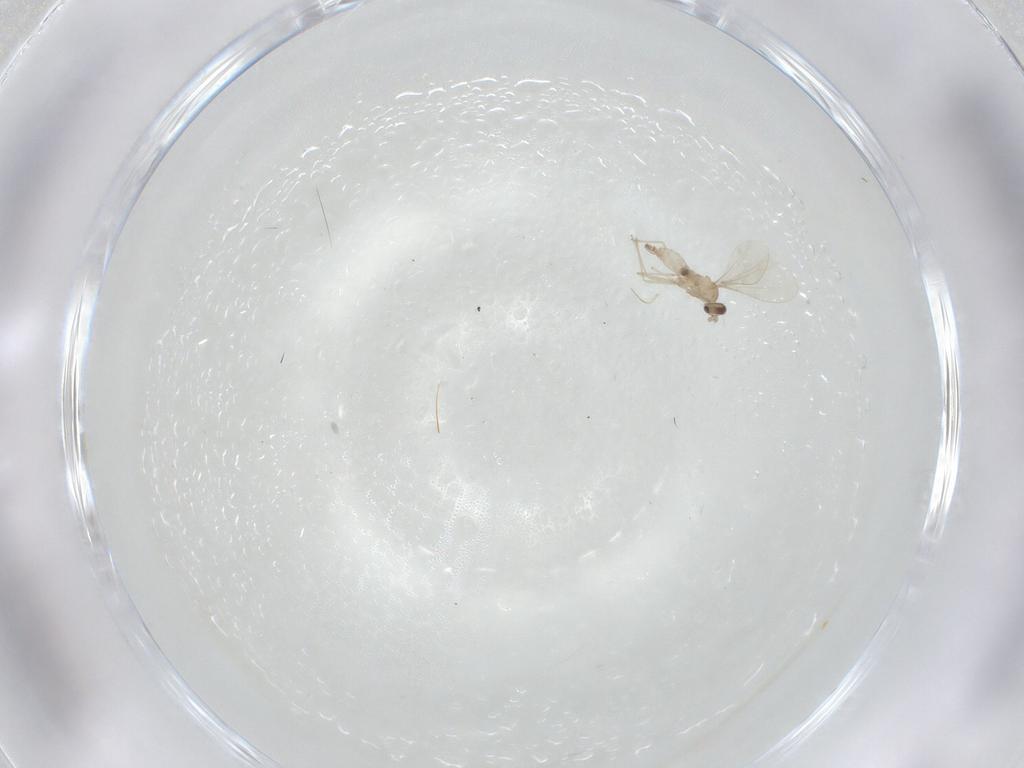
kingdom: Animalia
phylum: Arthropoda
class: Insecta
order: Diptera
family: Cecidomyiidae
